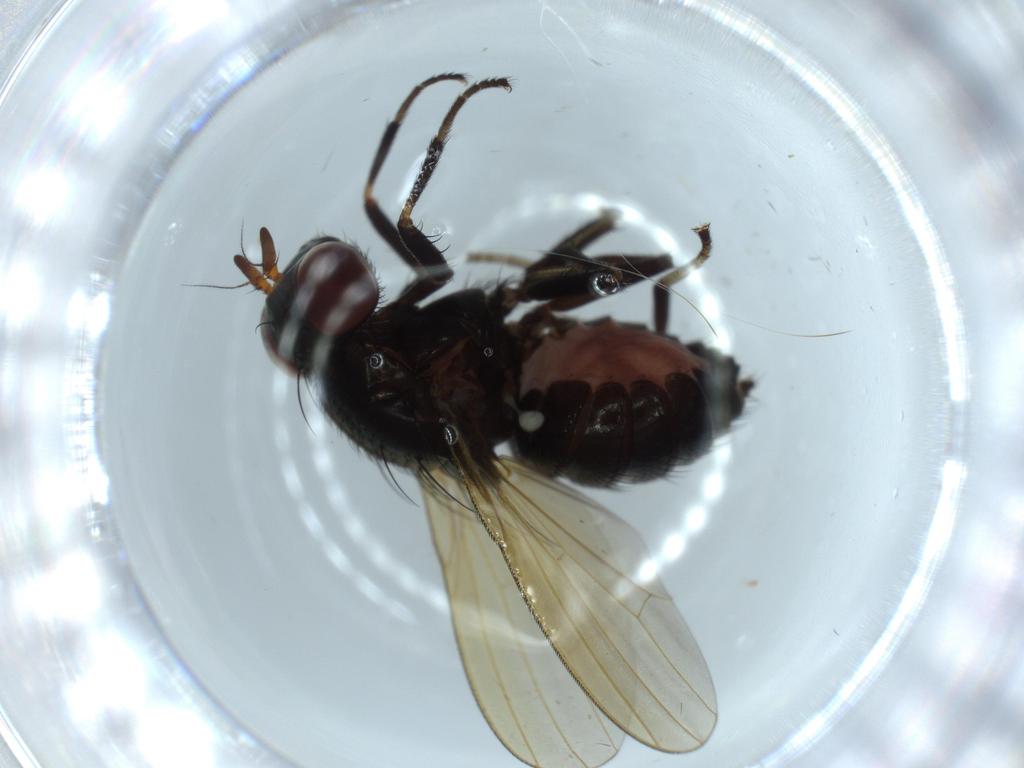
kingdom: Animalia
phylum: Arthropoda
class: Insecta
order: Diptera
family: Lauxaniidae
